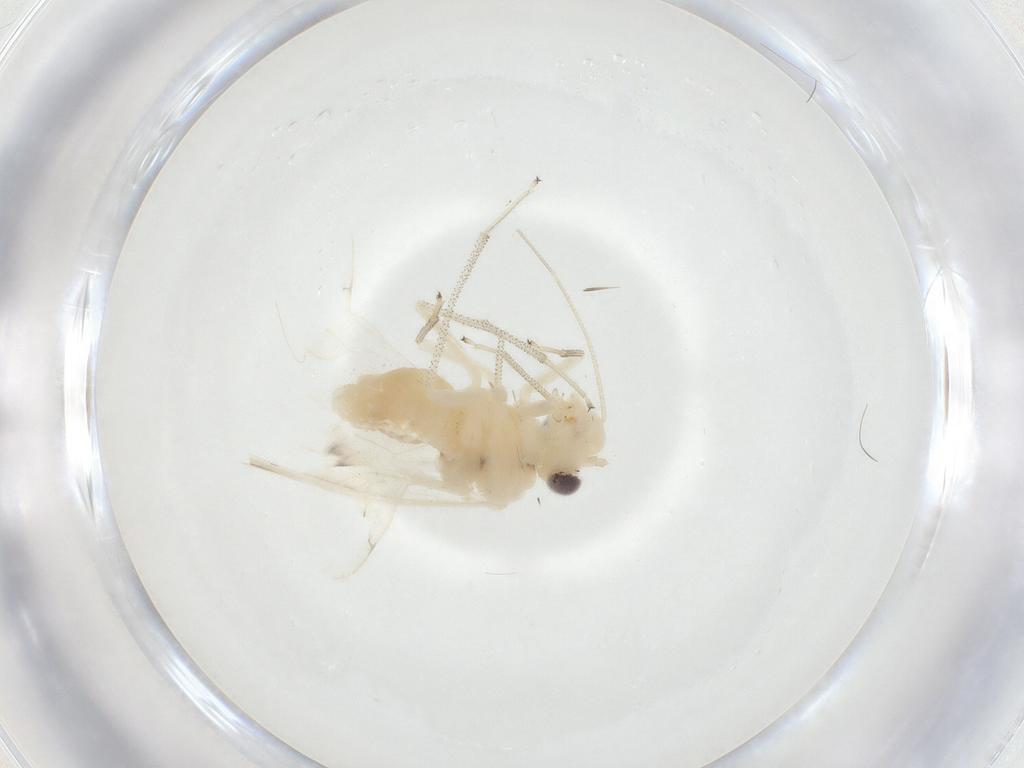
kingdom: Animalia
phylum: Arthropoda
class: Insecta
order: Psocodea
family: Caeciliusidae
